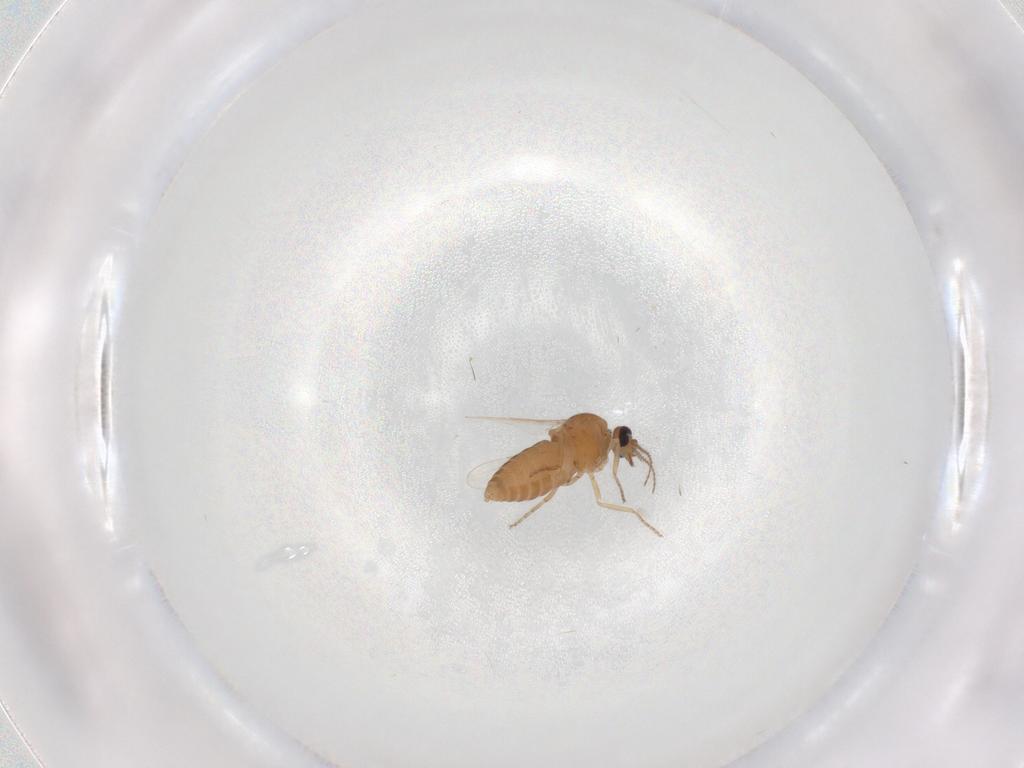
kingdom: Animalia
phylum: Arthropoda
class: Insecta
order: Diptera
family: Ceratopogonidae
